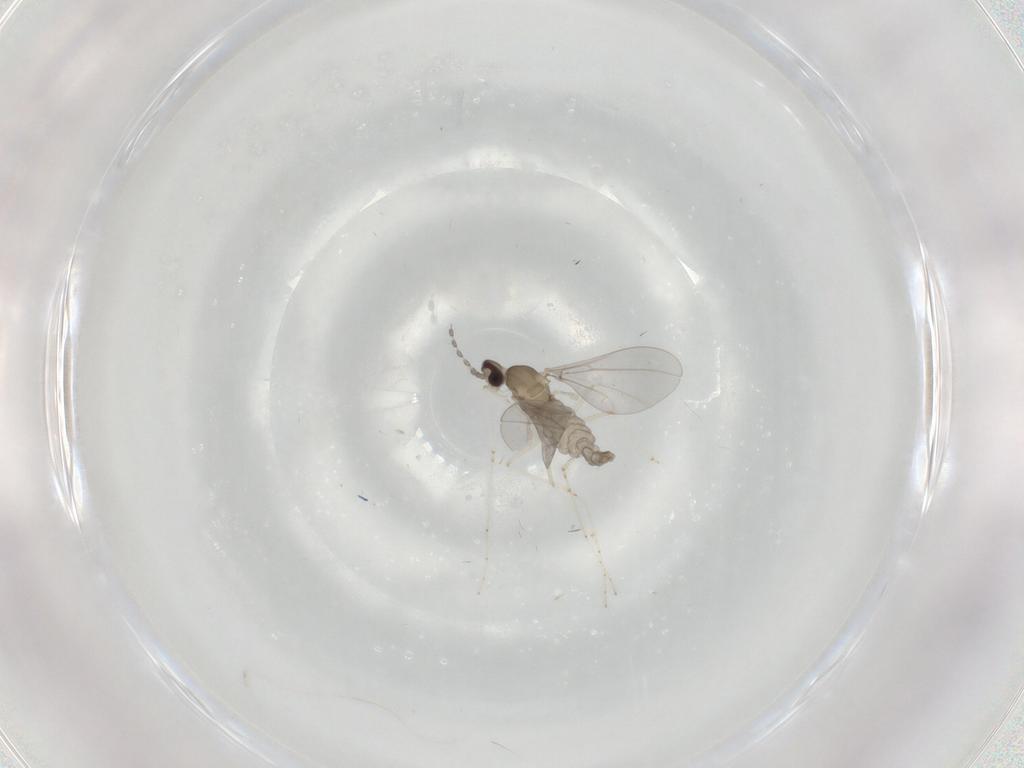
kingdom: Animalia
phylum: Arthropoda
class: Insecta
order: Diptera
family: Cecidomyiidae
